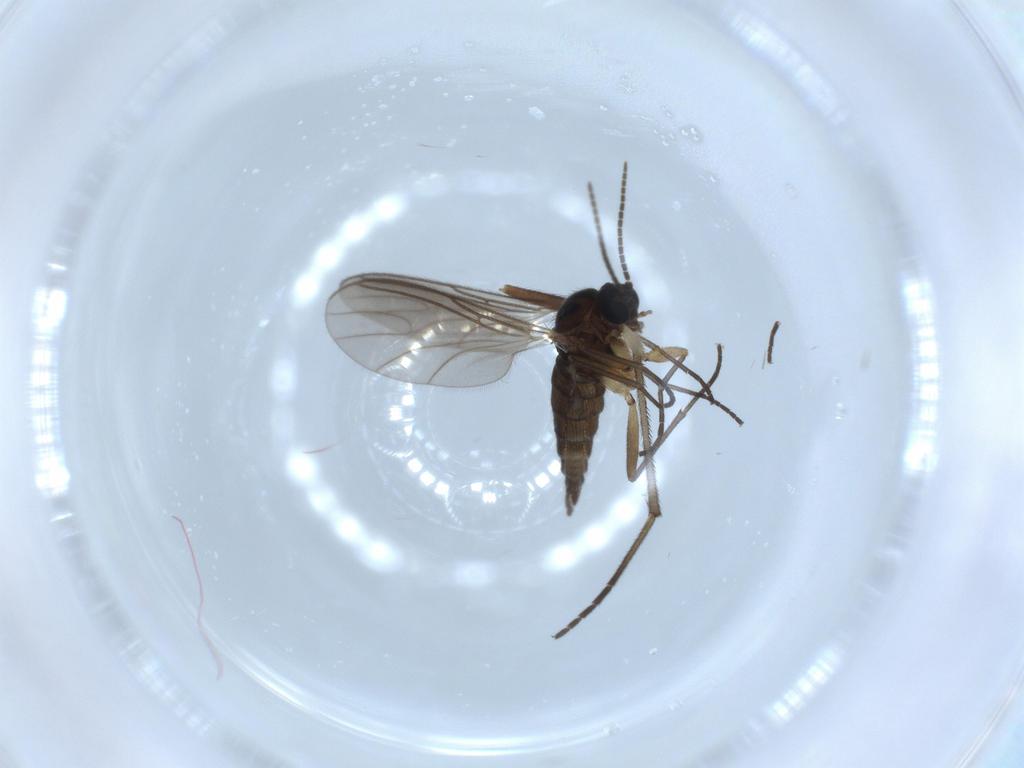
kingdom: Animalia
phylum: Arthropoda
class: Insecta
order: Diptera
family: Sciaridae
